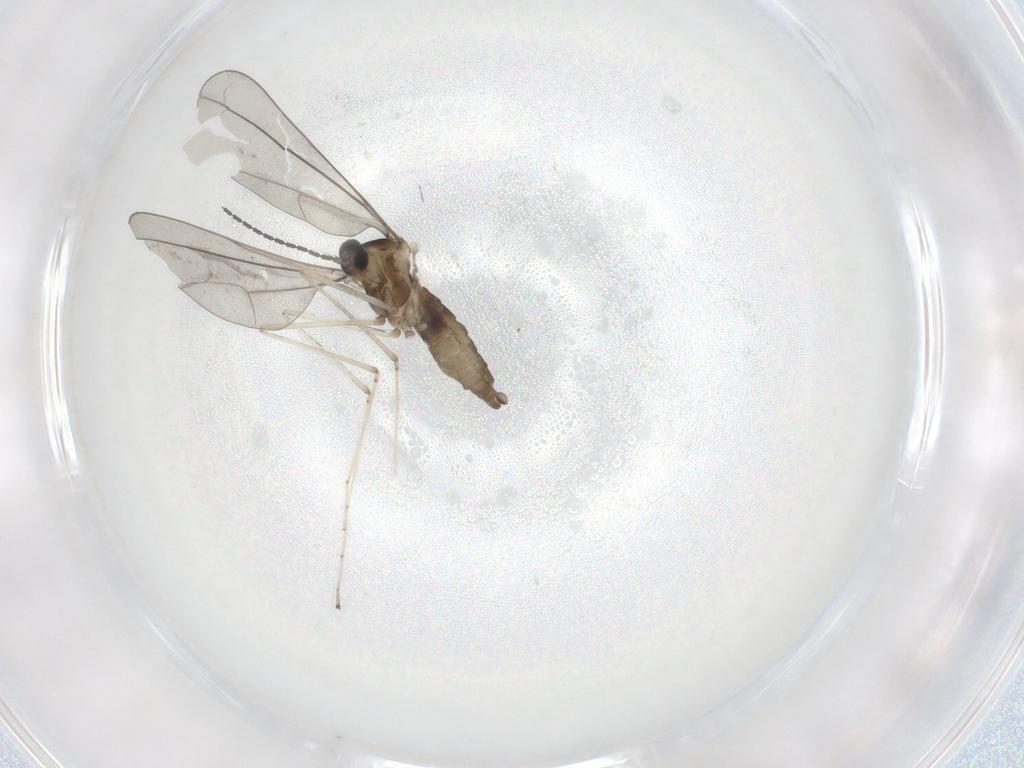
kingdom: Animalia
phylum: Arthropoda
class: Insecta
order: Diptera
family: Cecidomyiidae
